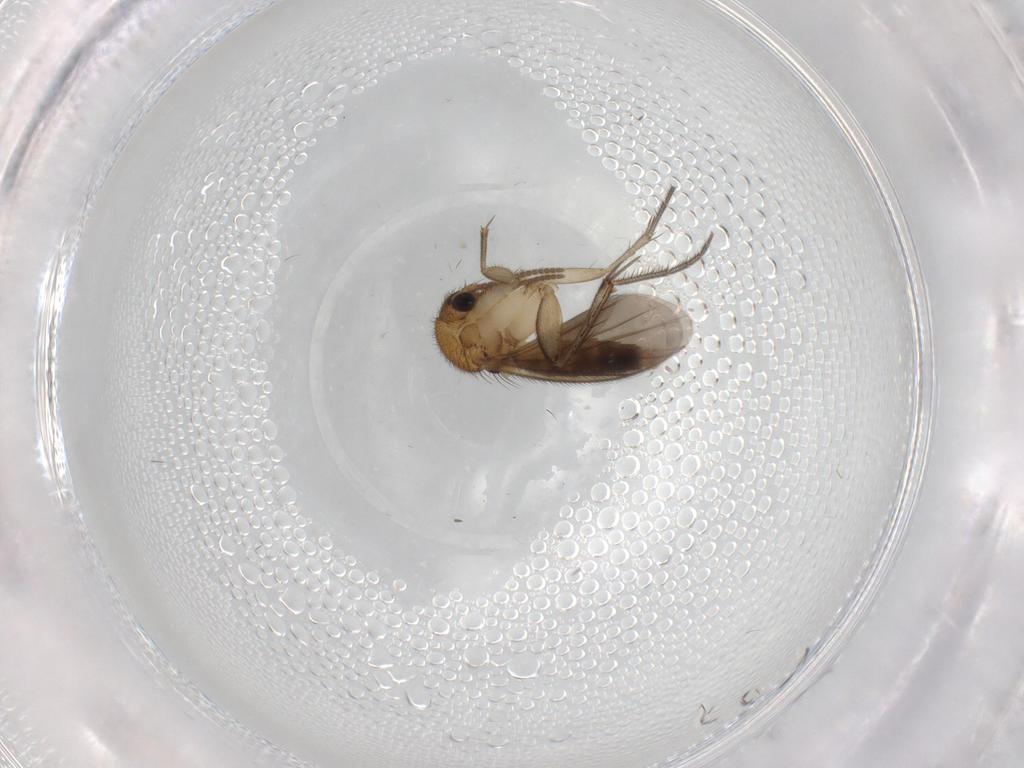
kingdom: Animalia
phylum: Arthropoda
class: Insecta
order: Diptera
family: Mycetophilidae
